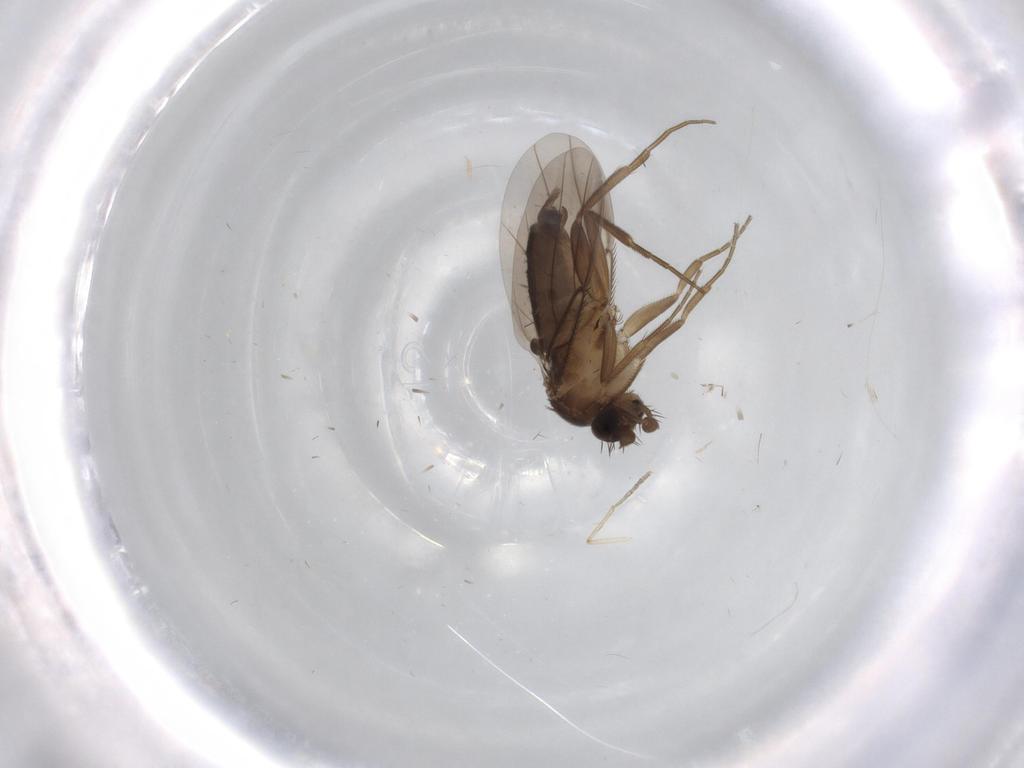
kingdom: Animalia
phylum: Arthropoda
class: Insecta
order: Diptera
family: Phoridae
